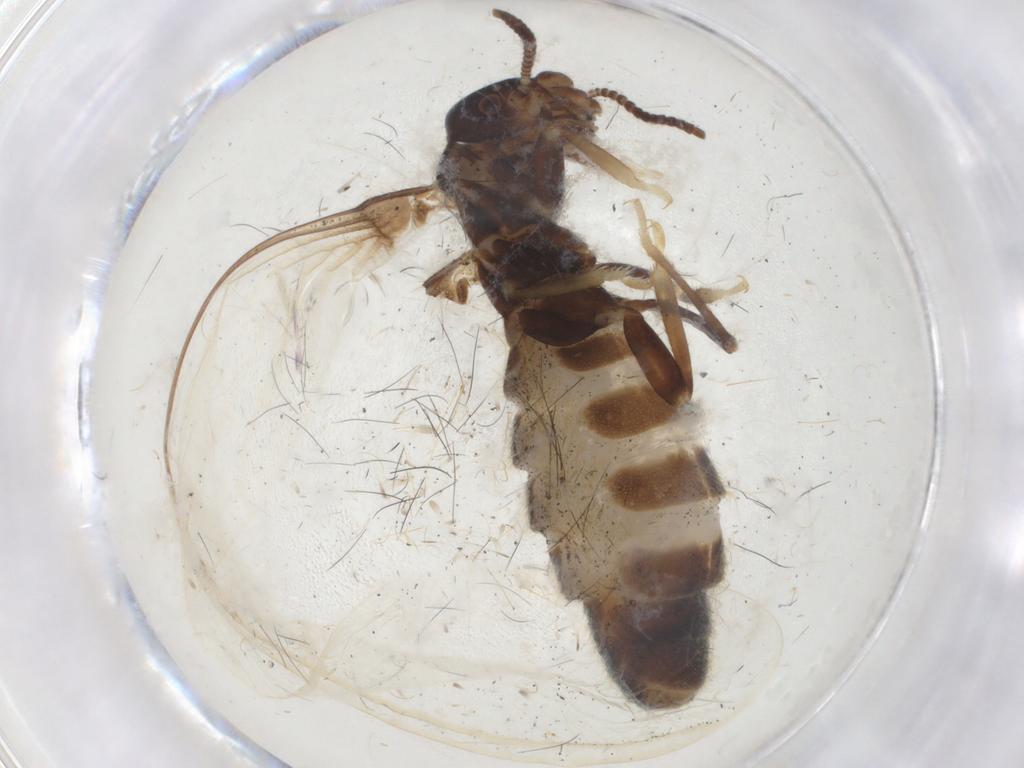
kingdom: Animalia
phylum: Arthropoda
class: Insecta
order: Blattodea
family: Rhinotermitidae
